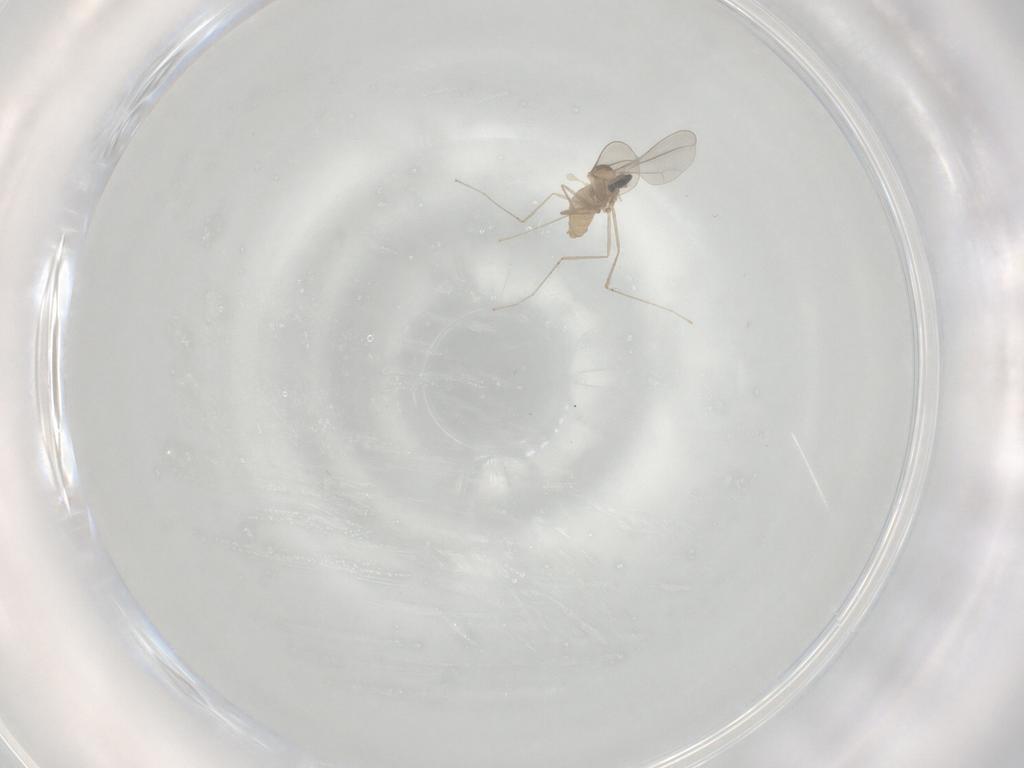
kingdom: Animalia
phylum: Arthropoda
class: Insecta
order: Diptera
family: Cecidomyiidae
